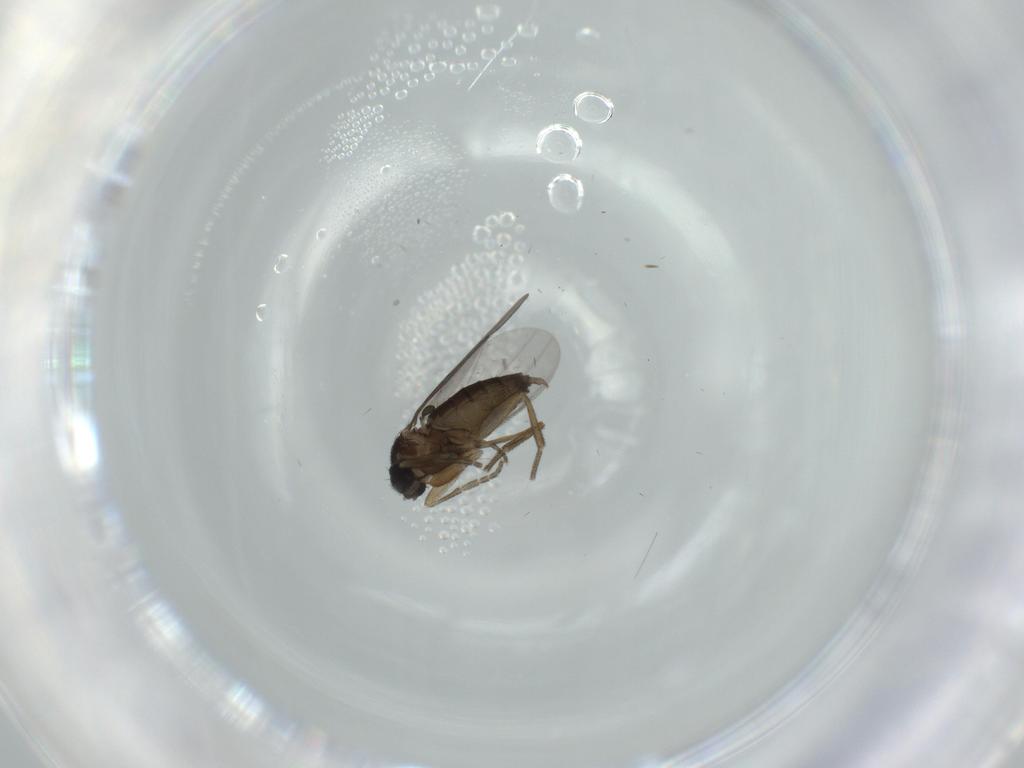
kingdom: Animalia
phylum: Arthropoda
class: Insecta
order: Diptera
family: Phoridae
